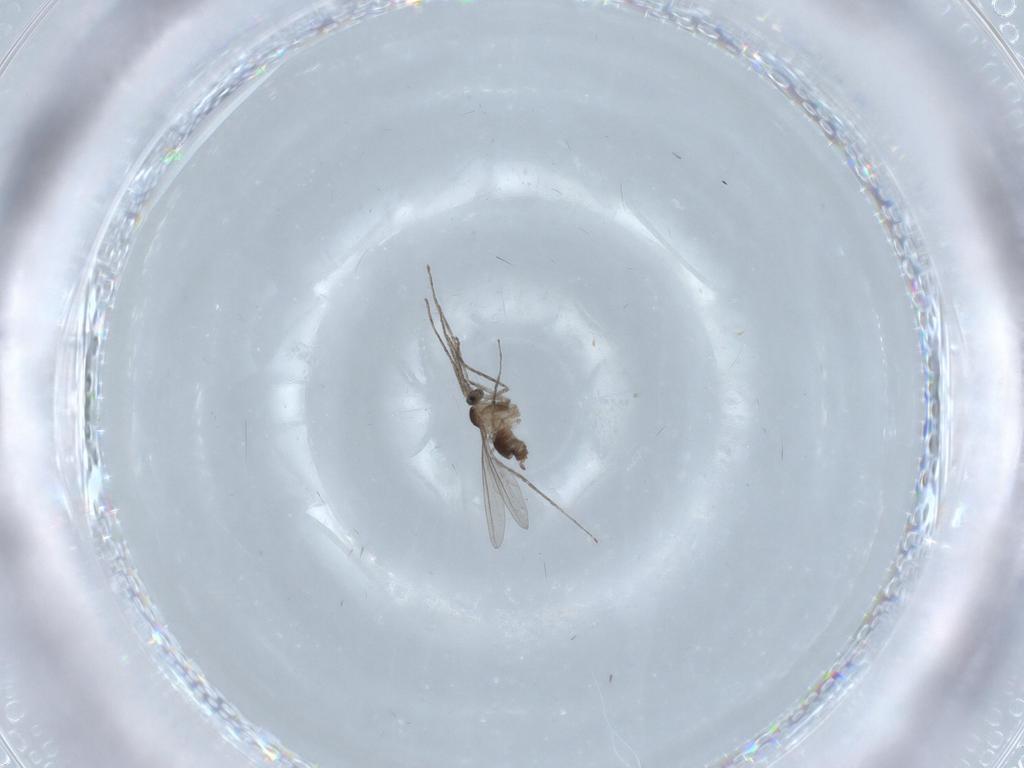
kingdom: Animalia
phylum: Arthropoda
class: Insecta
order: Diptera
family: Cecidomyiidae
